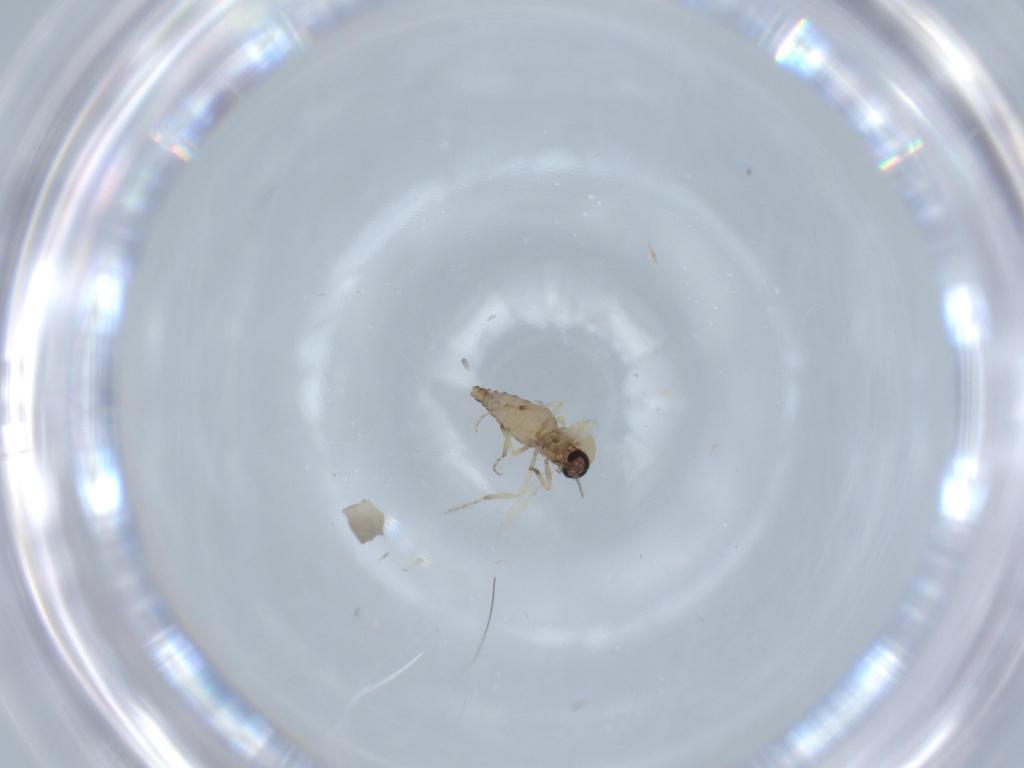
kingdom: Animalia
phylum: Arthropoda
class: Insecta
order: Diptera
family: Ceratopogonidae
